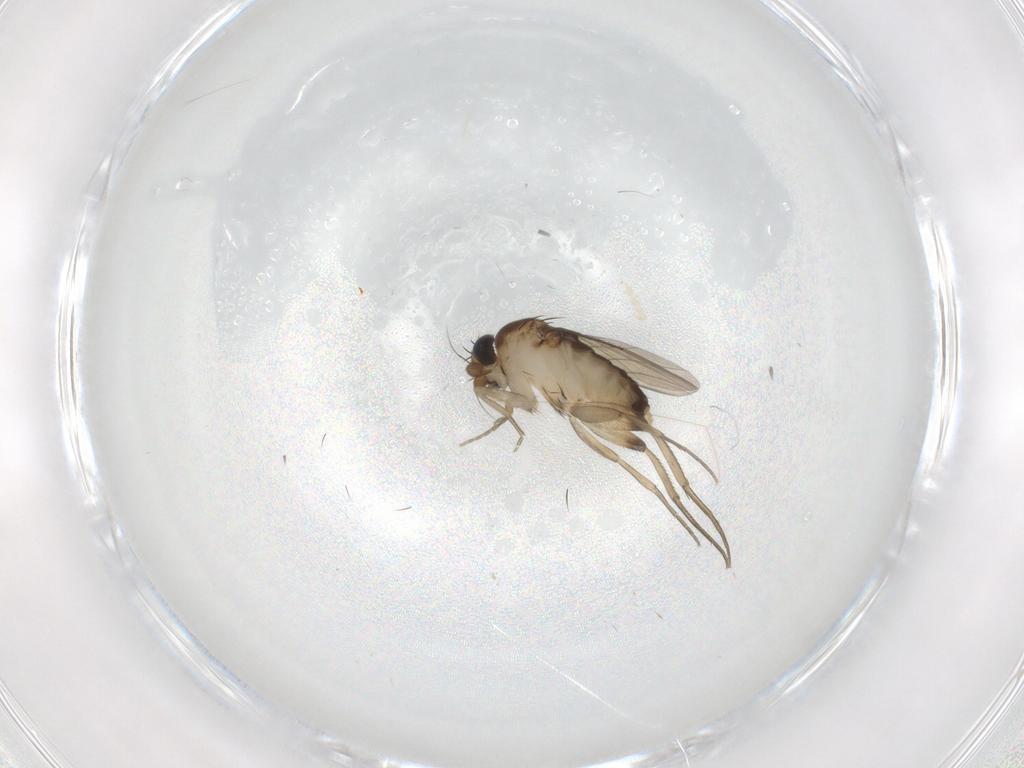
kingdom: Animalia
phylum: Arthropoda
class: Insecta
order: Diptera
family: Phoridae
